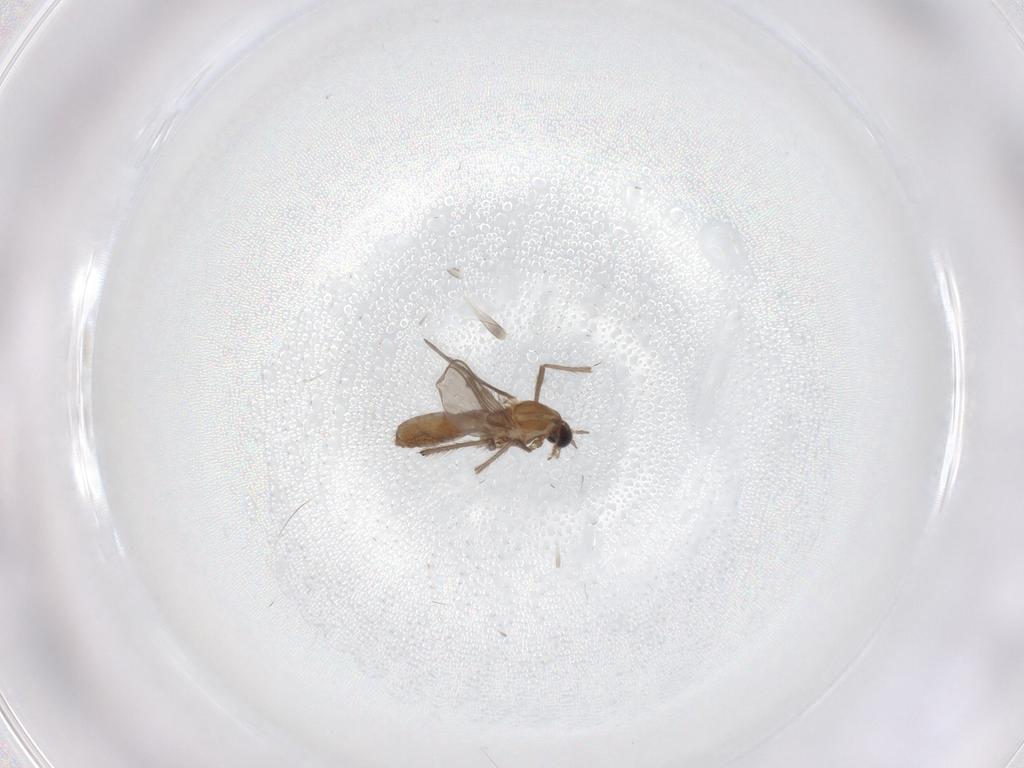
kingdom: Animalia
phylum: Arthropoda
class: Insecta
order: Diptera
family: Chironomidae
